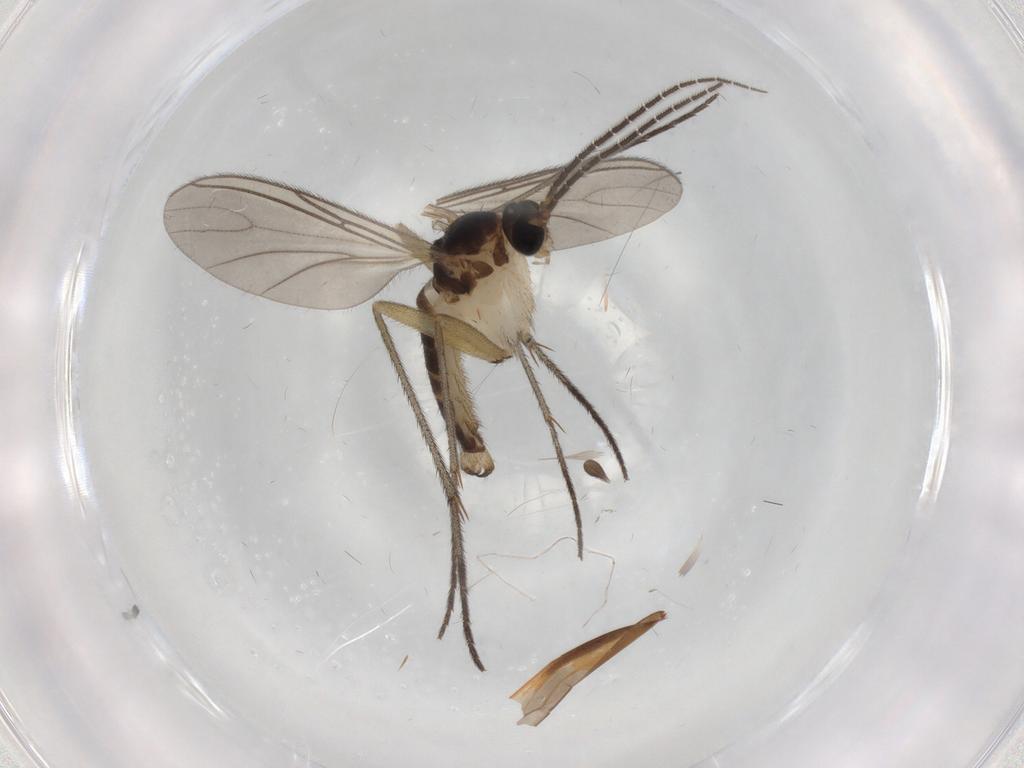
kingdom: Animalia
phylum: Arthropoda
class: Insecta
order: Diptera
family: Sciaridae
